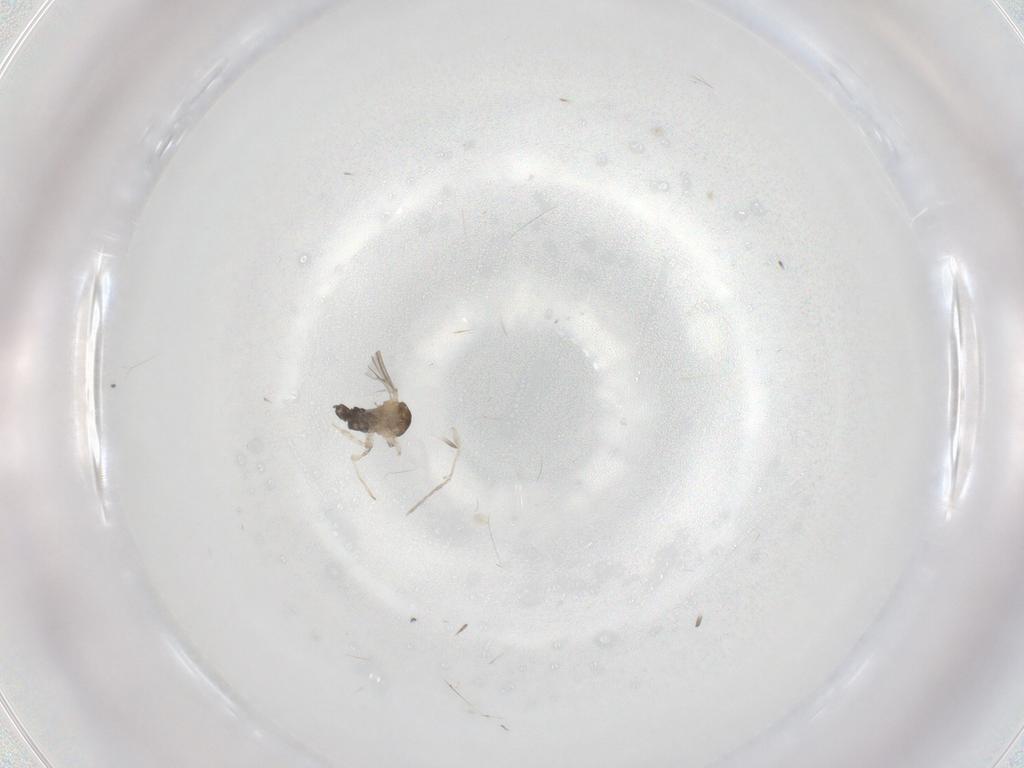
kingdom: Animalia
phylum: Arthropoda
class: Insecta
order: Diptera
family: Cecidomyiidae
